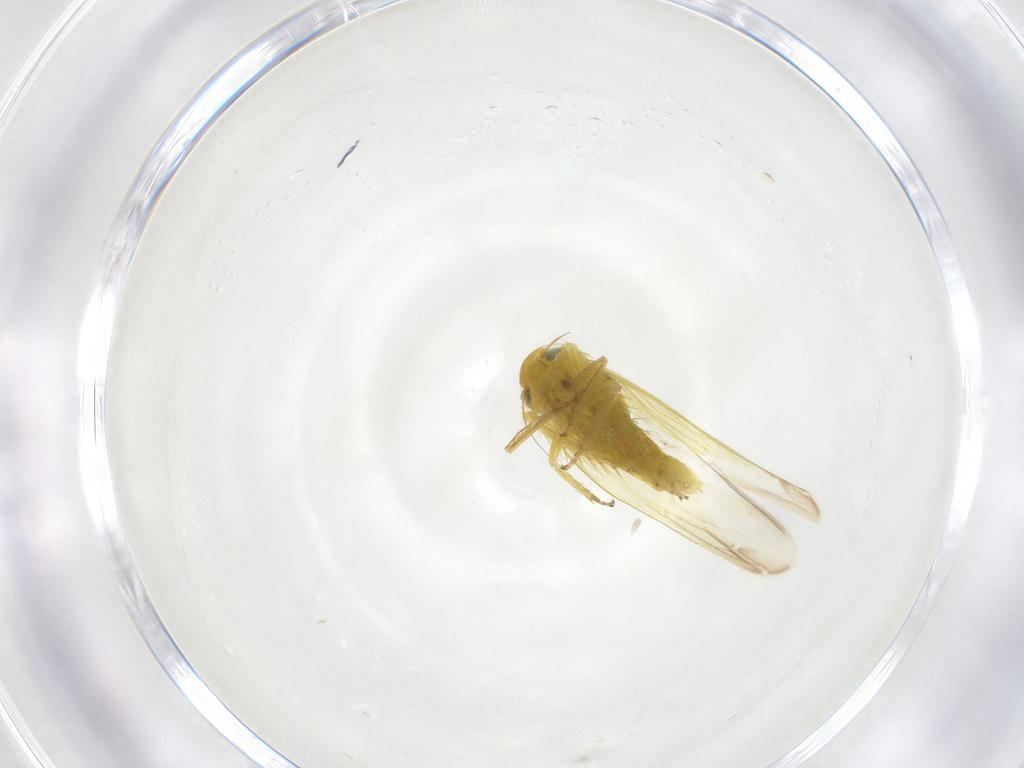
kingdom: Animalia
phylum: Arthropoda
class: Insecta
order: Hemiptera
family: Cicadellidae
